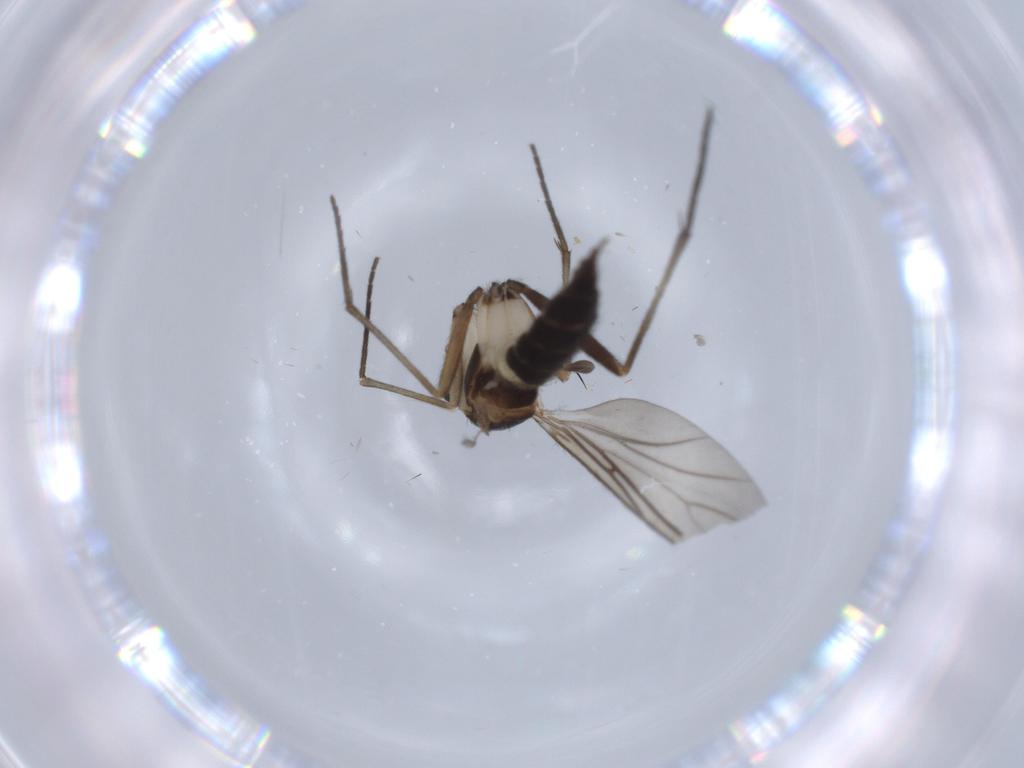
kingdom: Animalia
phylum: Arthropoda
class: Insecta
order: Diptera
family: Sciaridae
